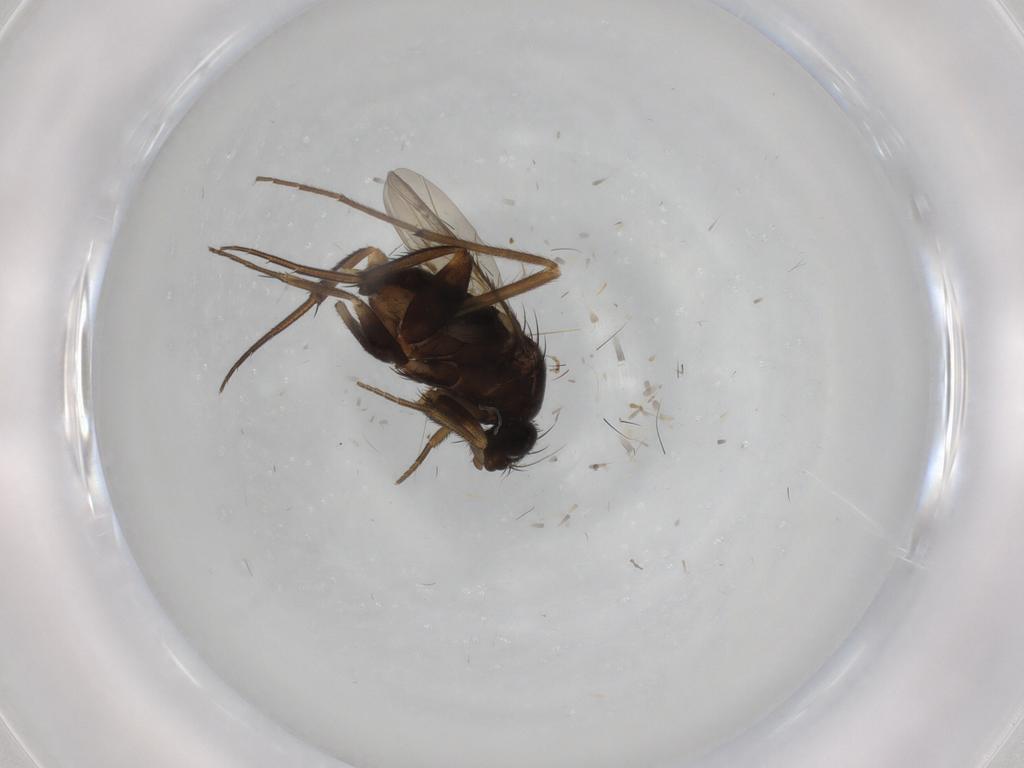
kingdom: Animalia
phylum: Arthropoda
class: Insecta
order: Diptera
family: Phoridae
